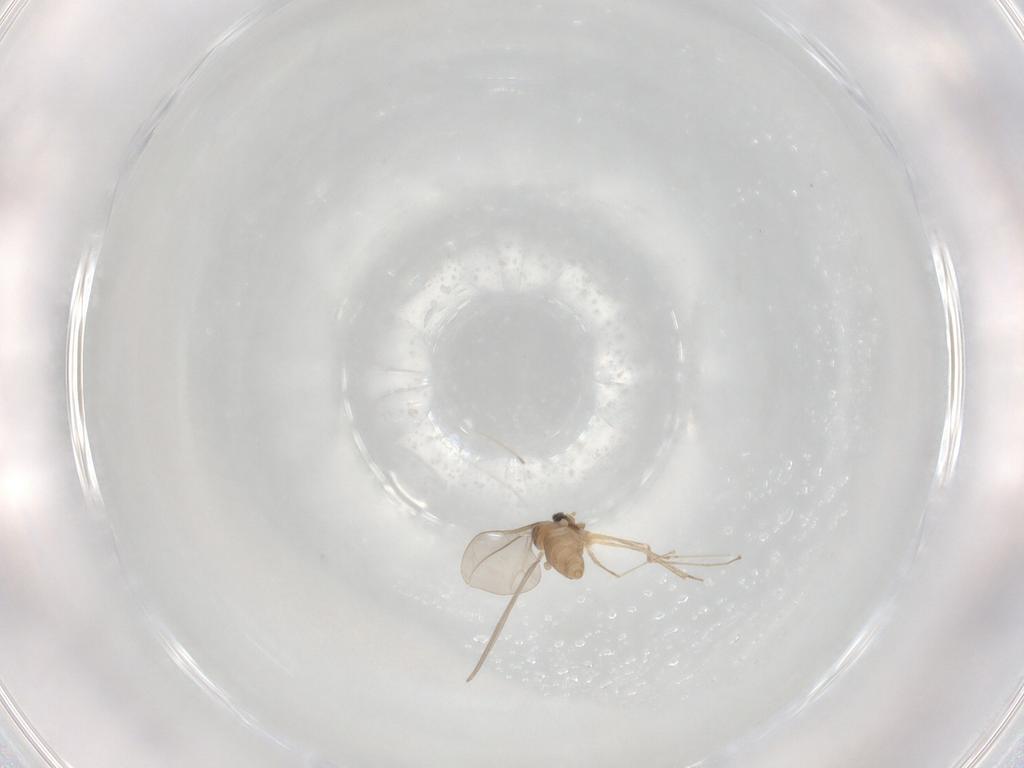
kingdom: Animalia
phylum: Arthropoda
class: Insecta
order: Diptera
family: Cecidomyiidae
